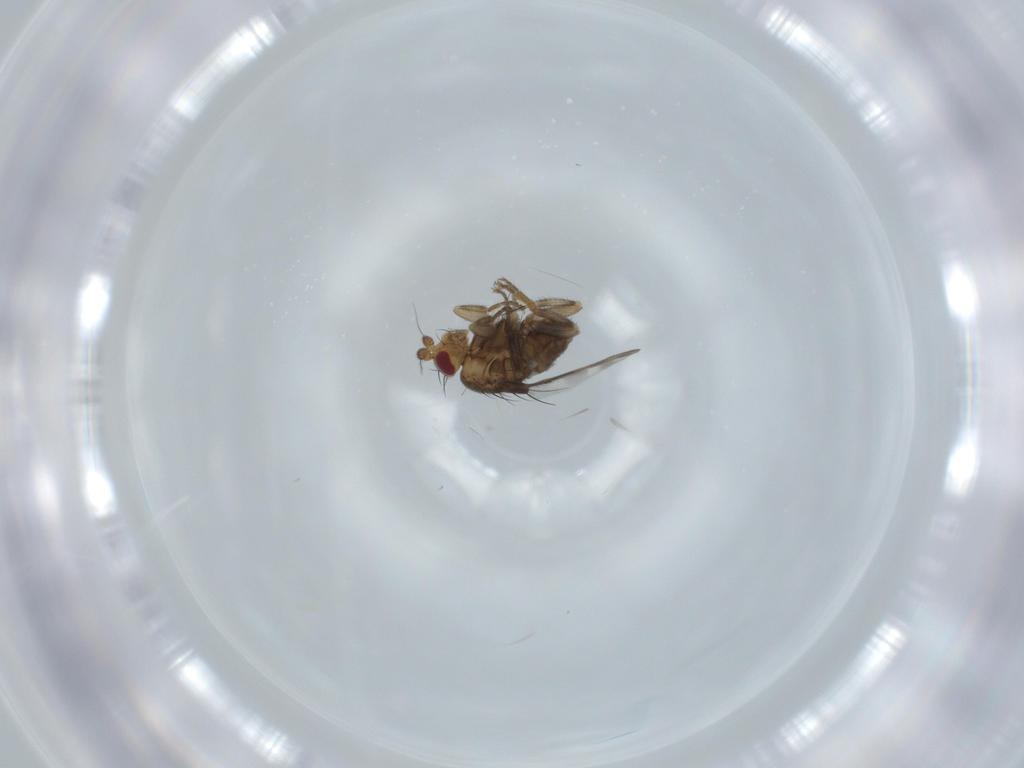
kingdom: Animalia
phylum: Arthropoda
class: Insecta
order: Diptera
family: Sphaeroceridae
